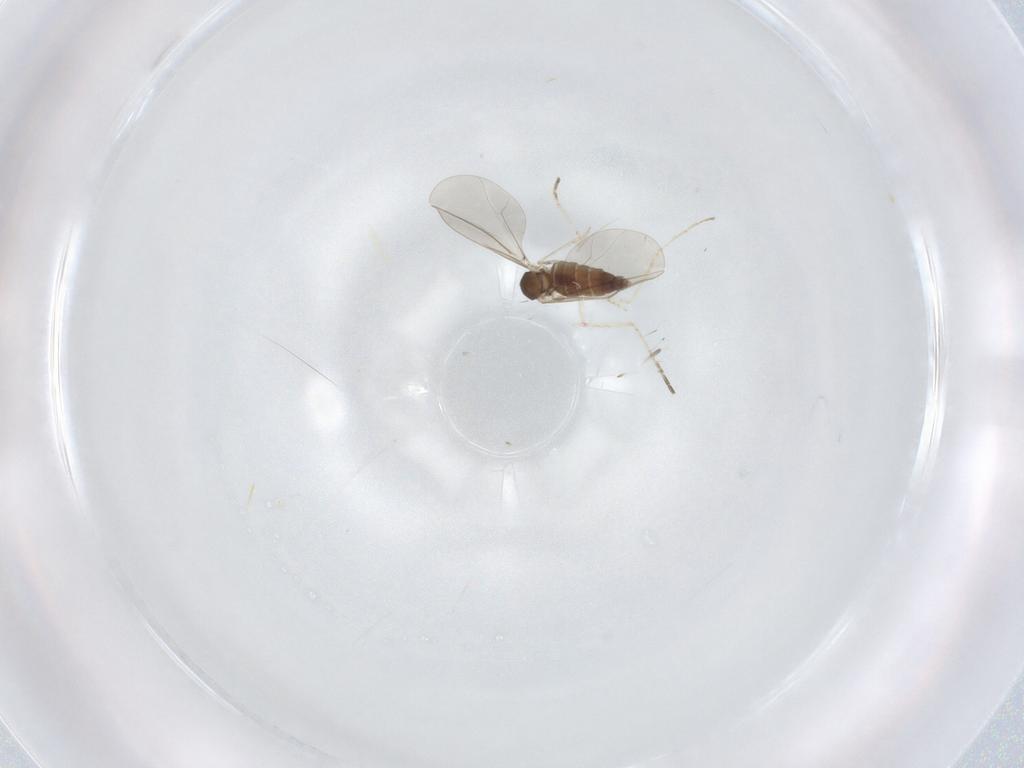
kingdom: Animalia
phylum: Arthropoda
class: Insecta
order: Diptera
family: Cecidomyiidae
